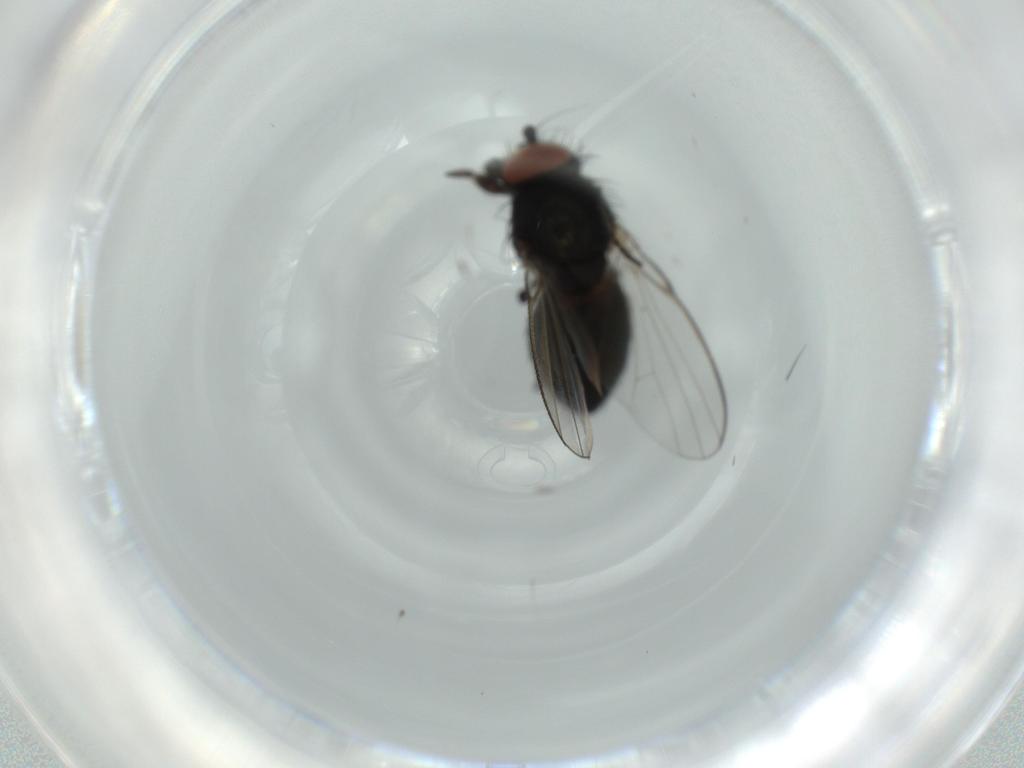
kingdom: Animalia
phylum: Arthropoda
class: Insecta
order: Diptera
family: Milichiidae
